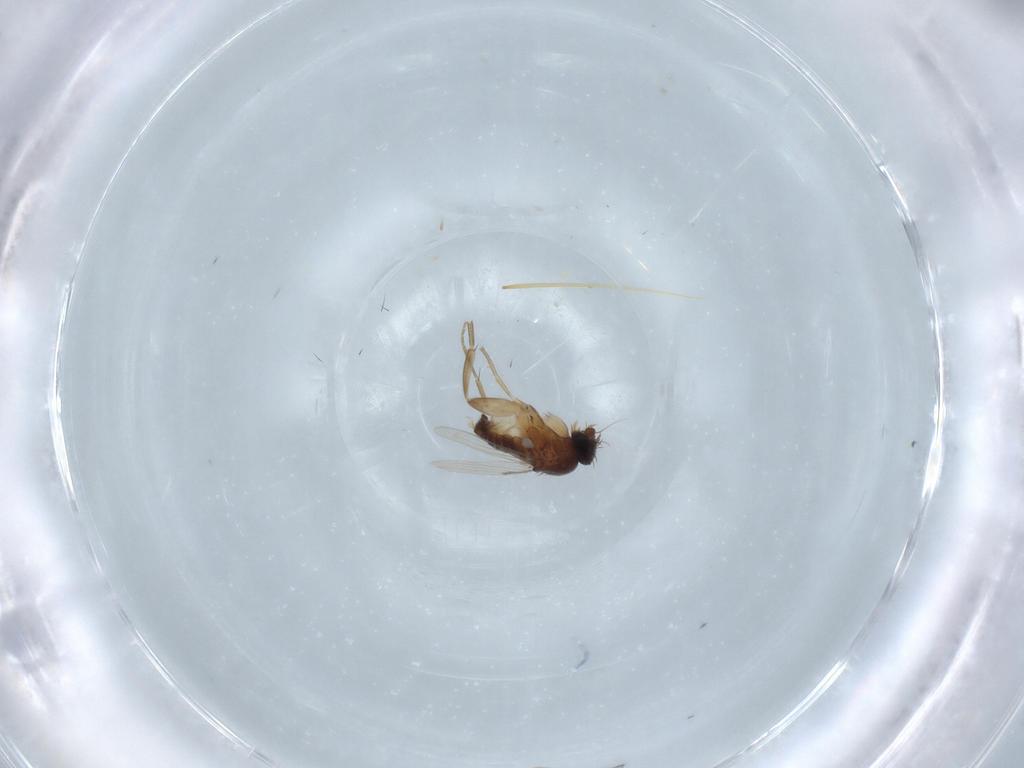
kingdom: Animalia
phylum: Arthropoda
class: Insecta
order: Diptera
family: Phoridae
